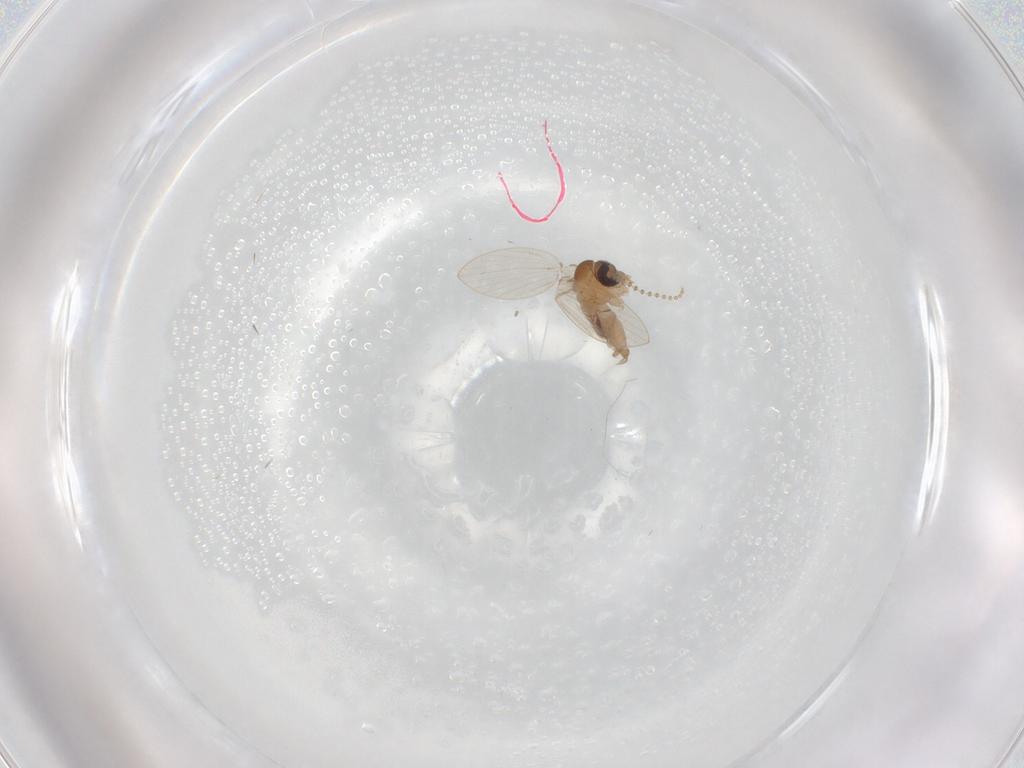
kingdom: Animalia
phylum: Arthropoda
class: Insecta
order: Diptera
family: Psychodidae
